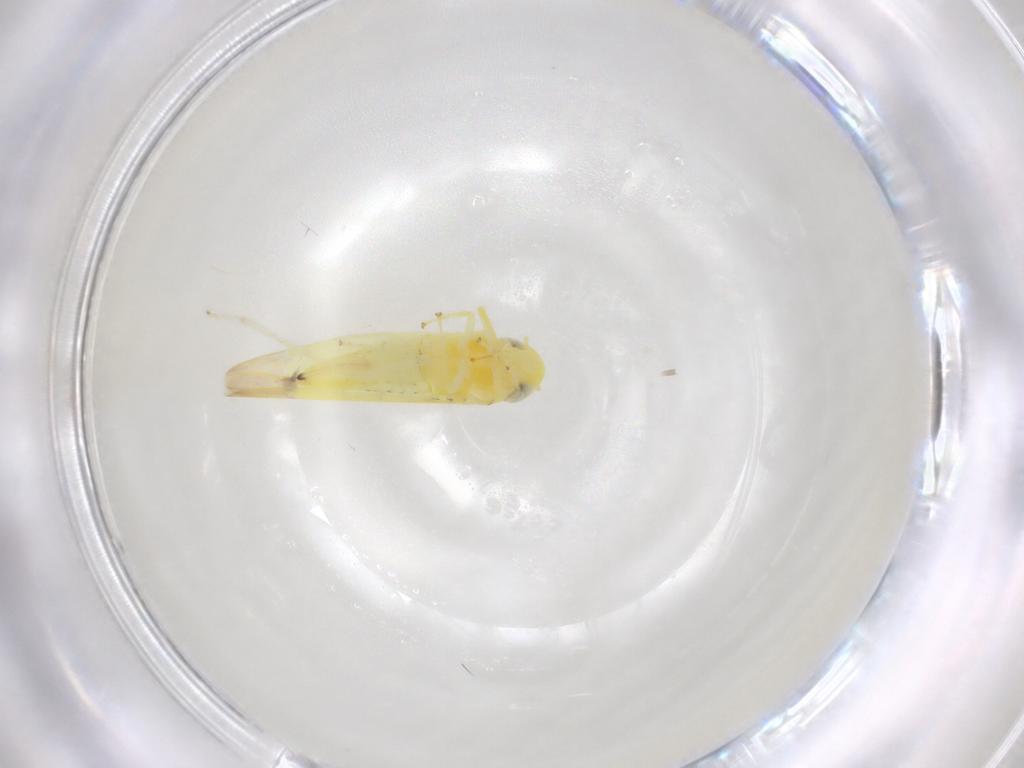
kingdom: Animalia
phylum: Arthropoda
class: Insecta
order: Hemiptera
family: Cicadellidae
